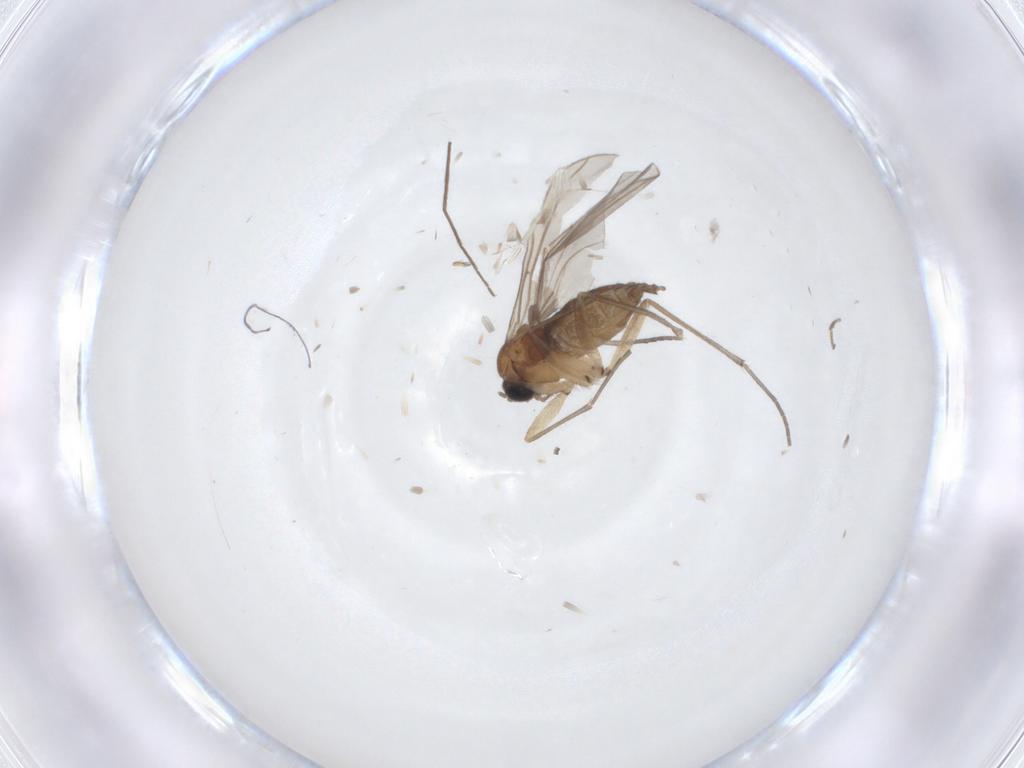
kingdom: Animalia
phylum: Arthropoda
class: Insecta
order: Diptera
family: Sciaridae
